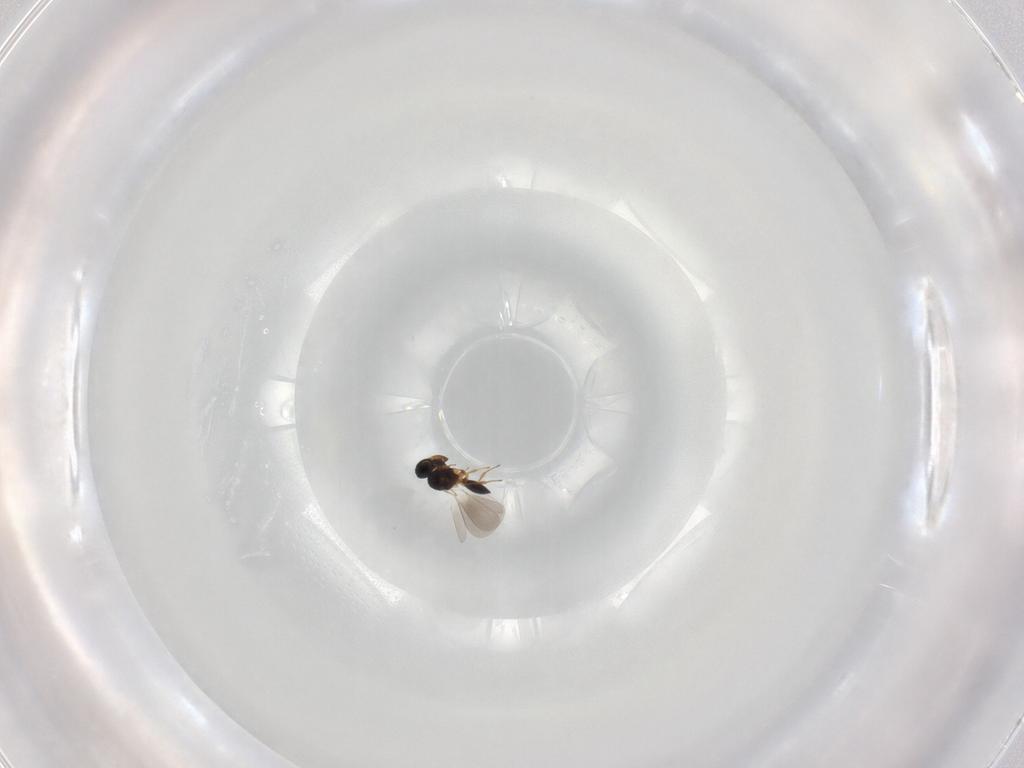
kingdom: Animalia
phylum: Arthropoda
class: Insecta
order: Hymenoptera
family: Platygastridae
